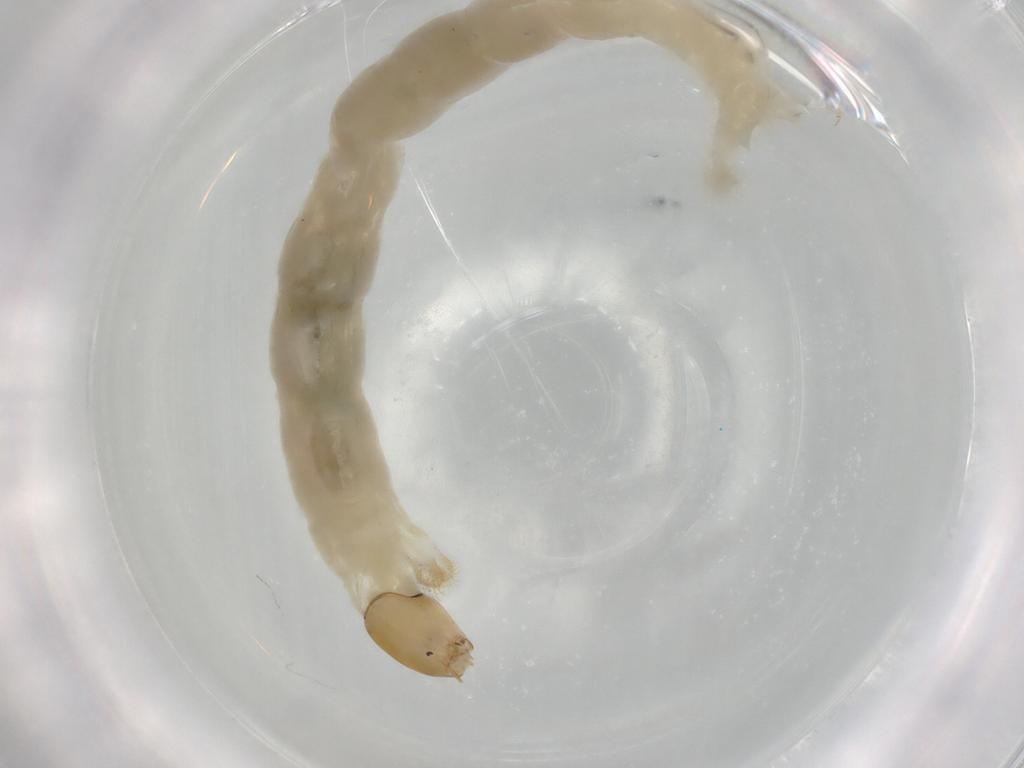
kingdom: Animalia
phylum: Arthropoda
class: Insecta
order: Diptera
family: Chironomidae
